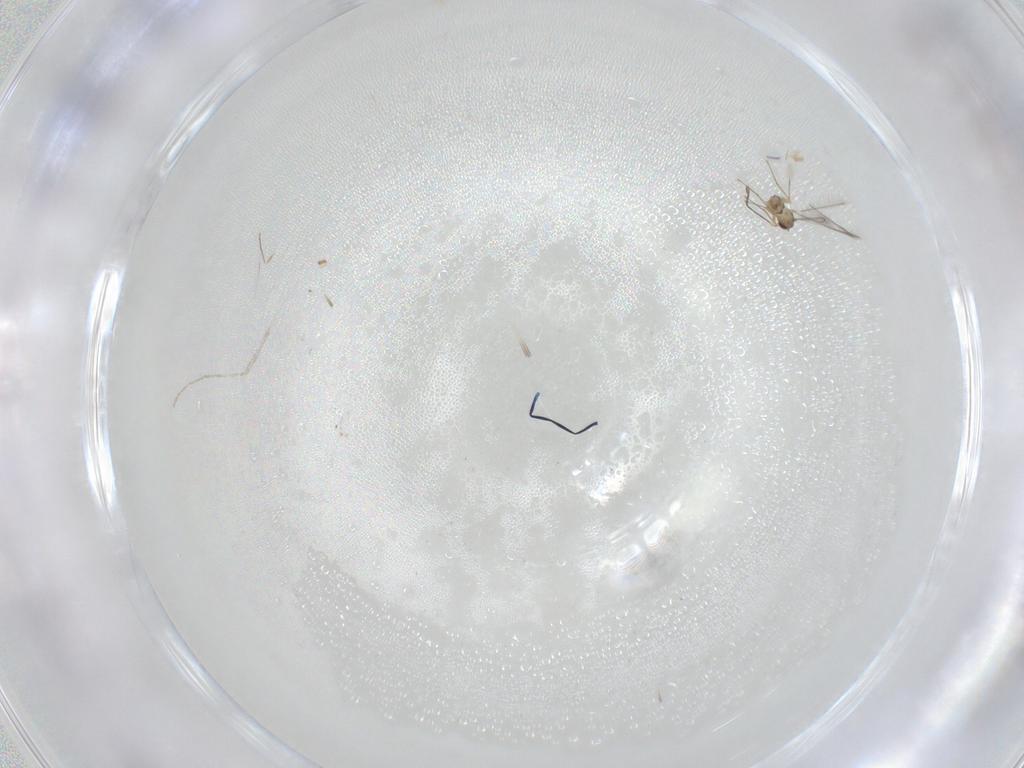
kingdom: Animalia
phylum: Arthropoda
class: Insecta
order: Hymenoptera
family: Mymaridae
